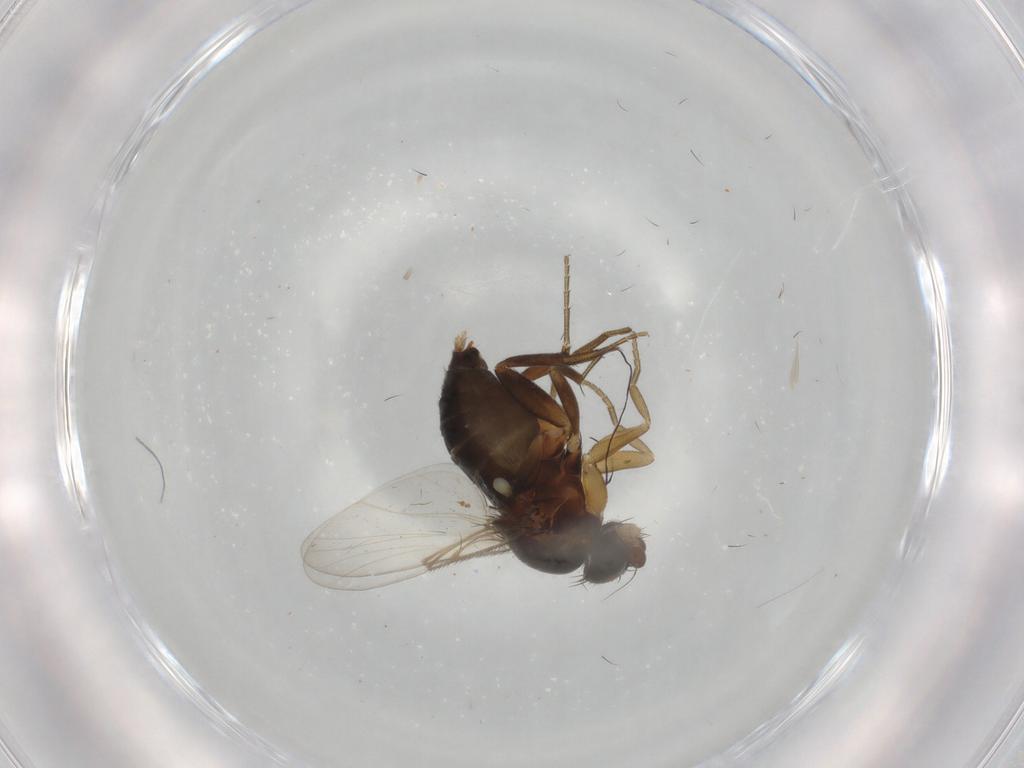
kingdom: Animalia
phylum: Arthropoda
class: Insecta
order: Diptera
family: Phoridae
